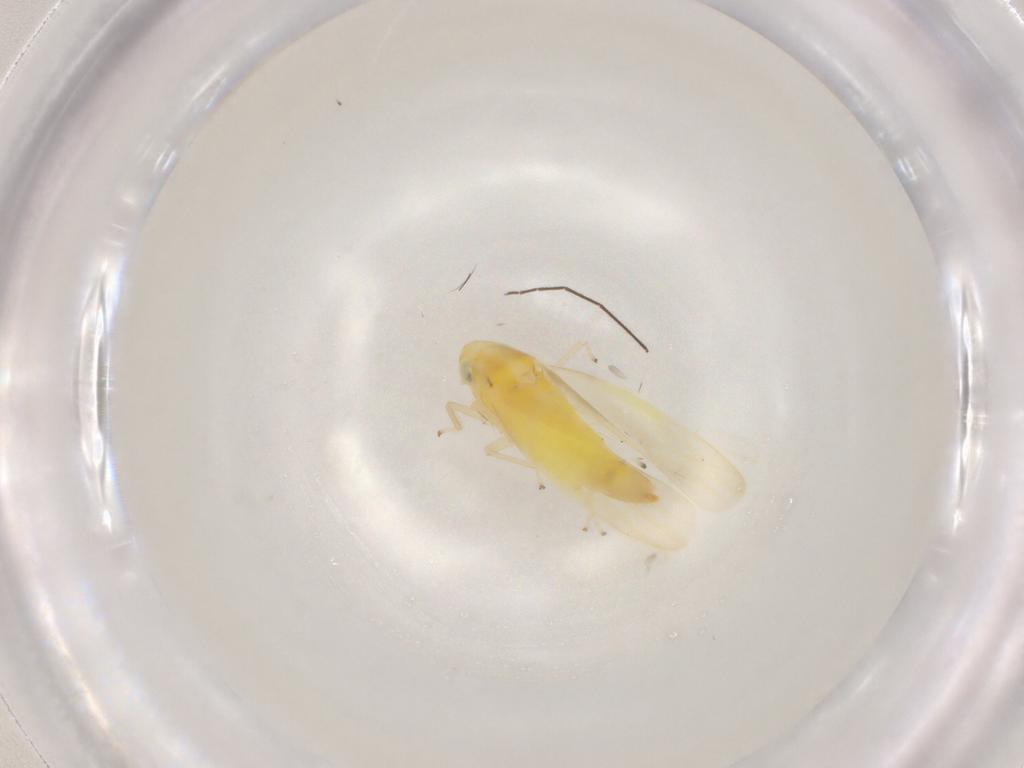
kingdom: Animalia
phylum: Arthropoda
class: Insecta
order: Hemiptera
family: Cicadellidae
